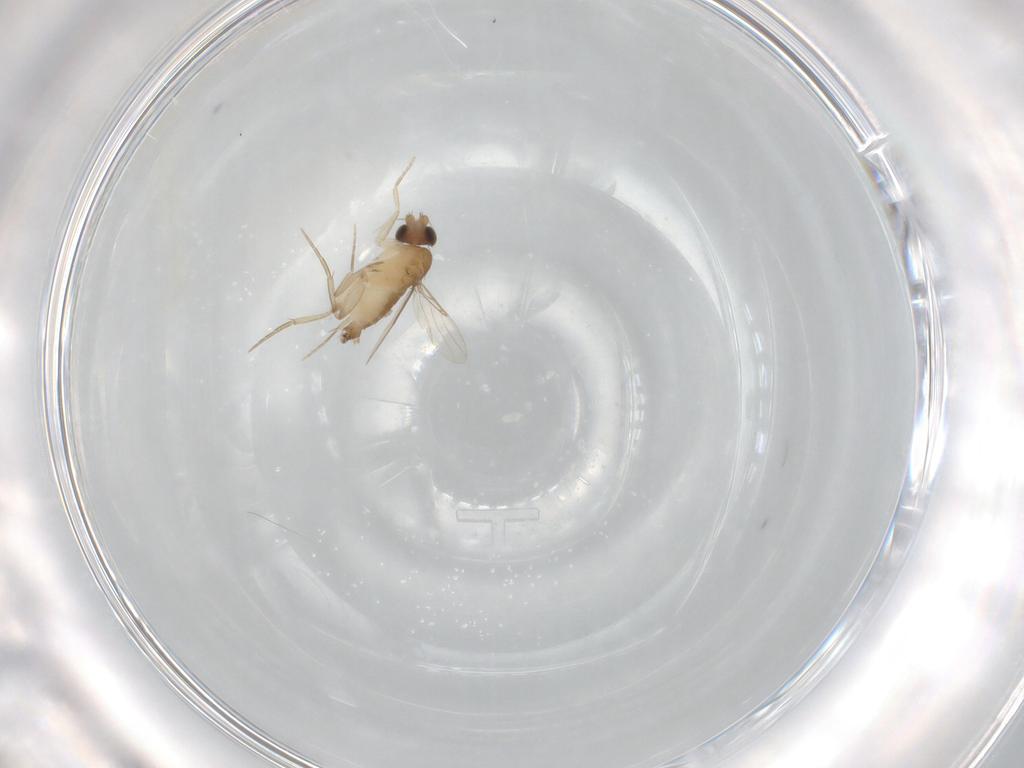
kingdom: Animalia
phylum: Arthropoda
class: Insecta
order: Diptera
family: Phoridae
